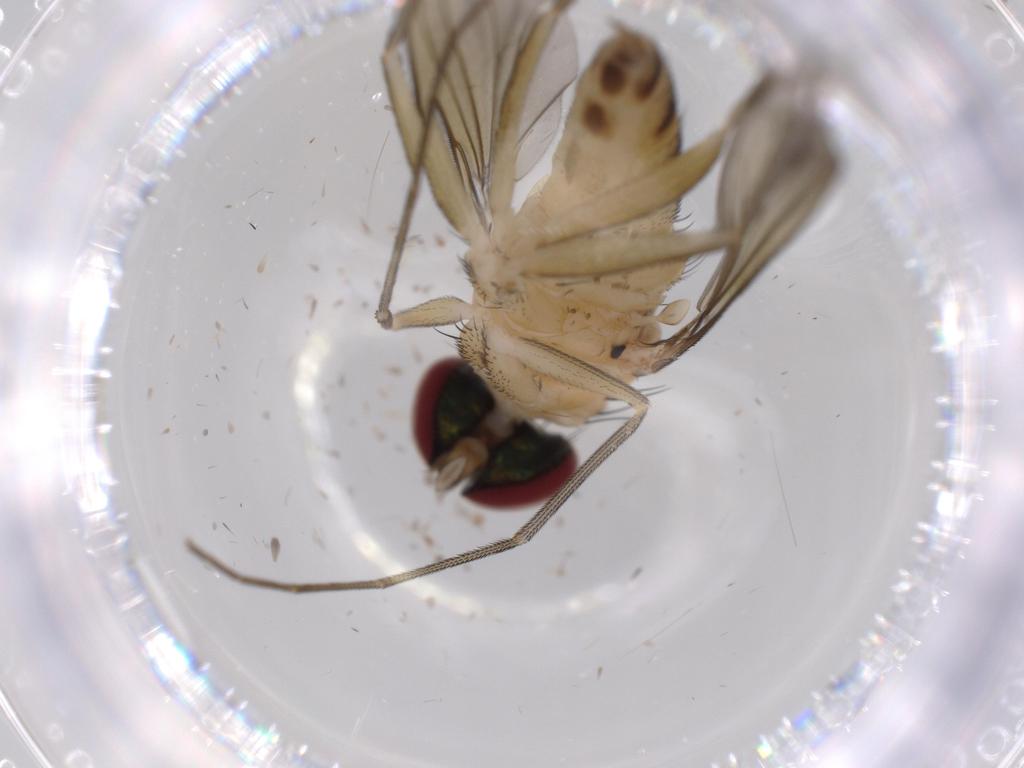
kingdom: Animalia
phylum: Arthropoda
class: Insecta
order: Diptera
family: Dolichopodidae
